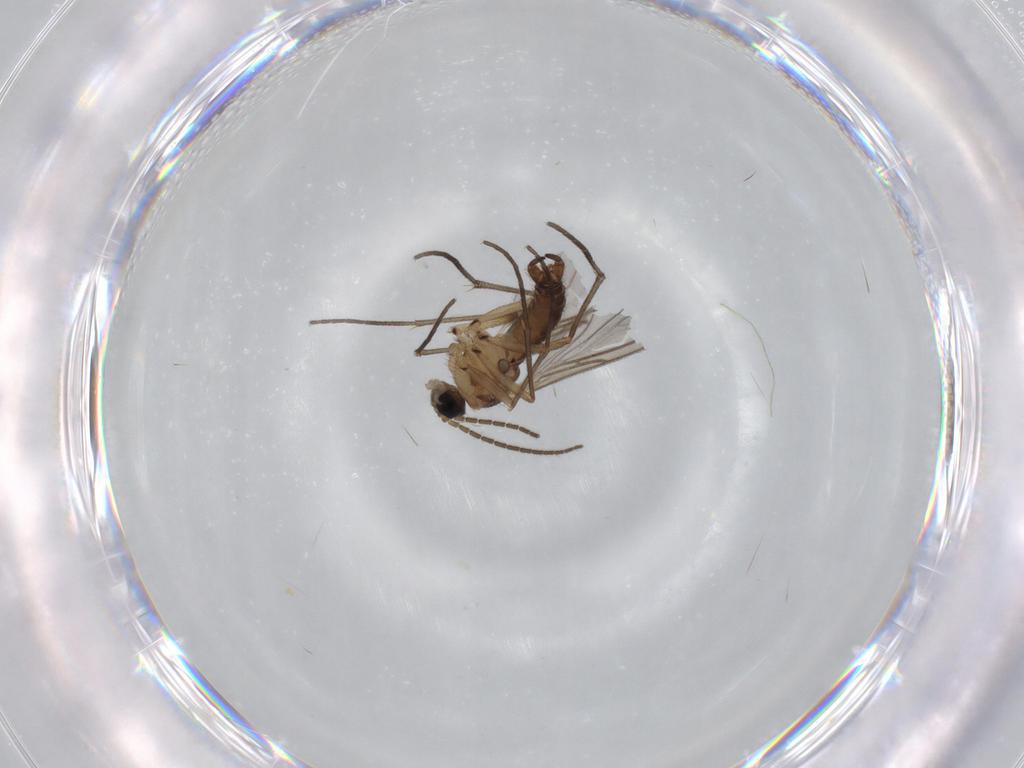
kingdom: Animalia
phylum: Arthropoda
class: Insecta
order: Diptera
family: Sciaridae
